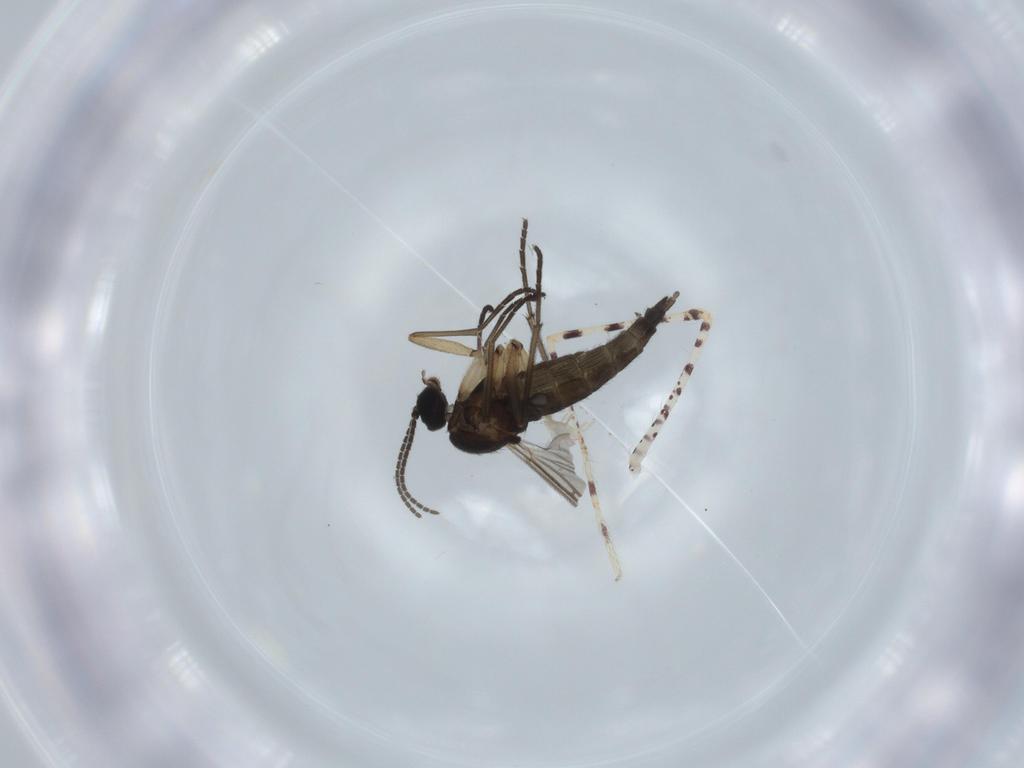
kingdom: Animalia
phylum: Arthropoda
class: Insecta
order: Diptera
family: Sciaridae
